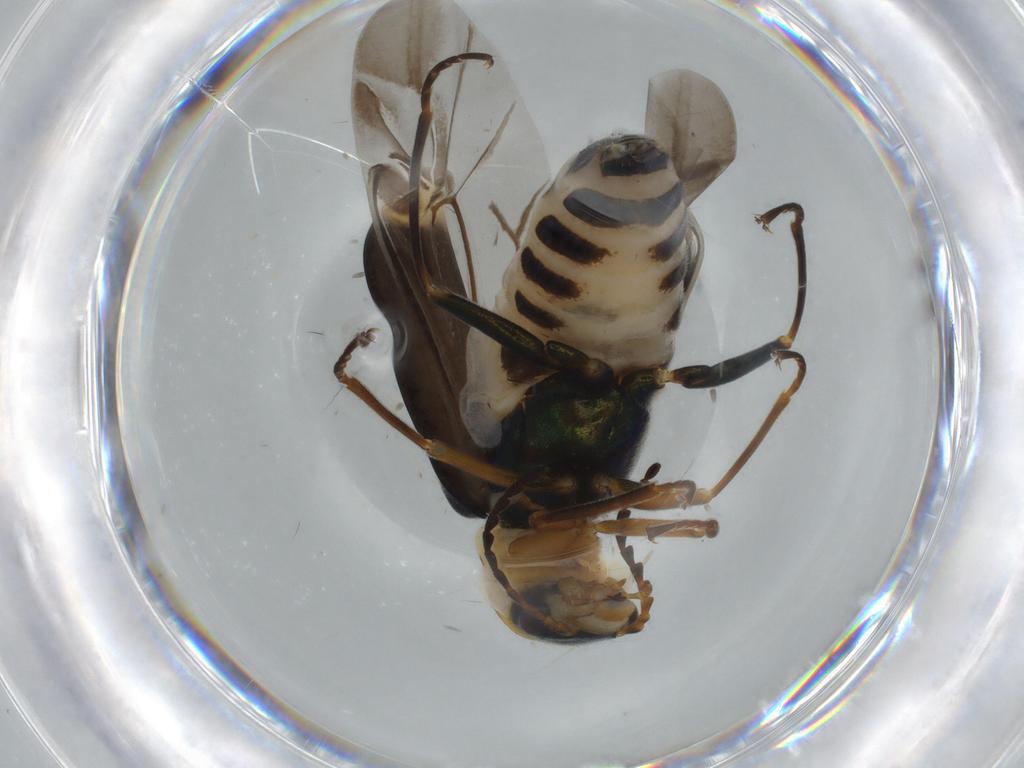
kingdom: Animalia
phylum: Arthropoda
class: Insecta
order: Coleoptera
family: Melyridae
